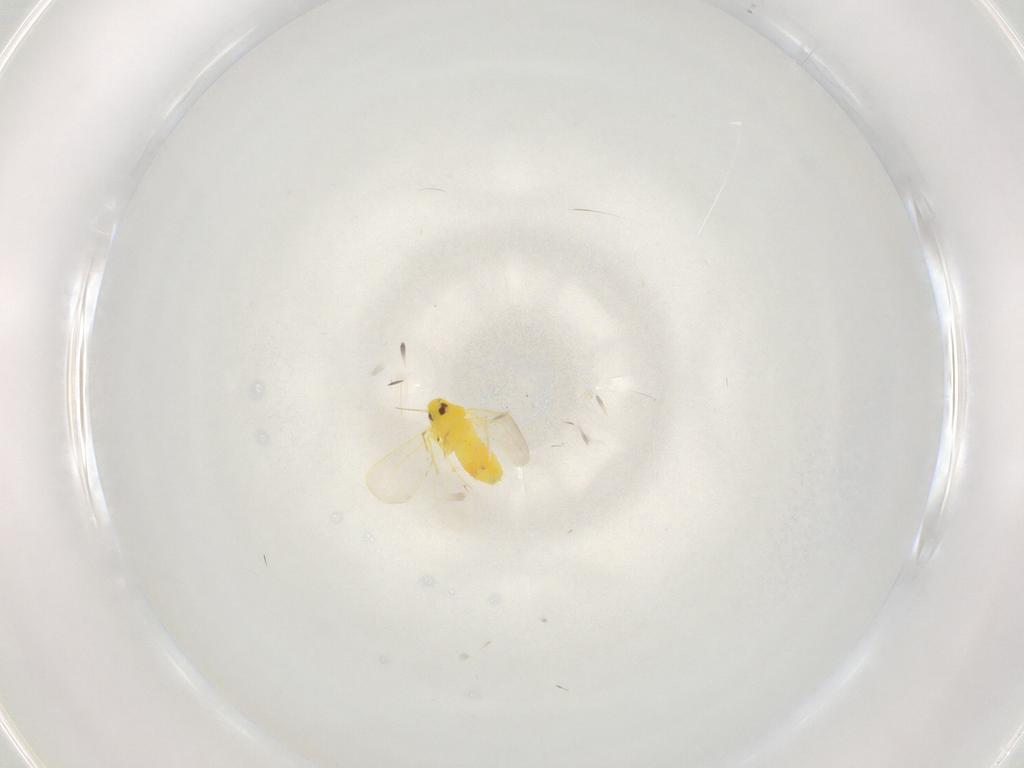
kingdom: Animalia
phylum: Arthropoda
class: Insecta
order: Hemiptera
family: Aleyrodidae
